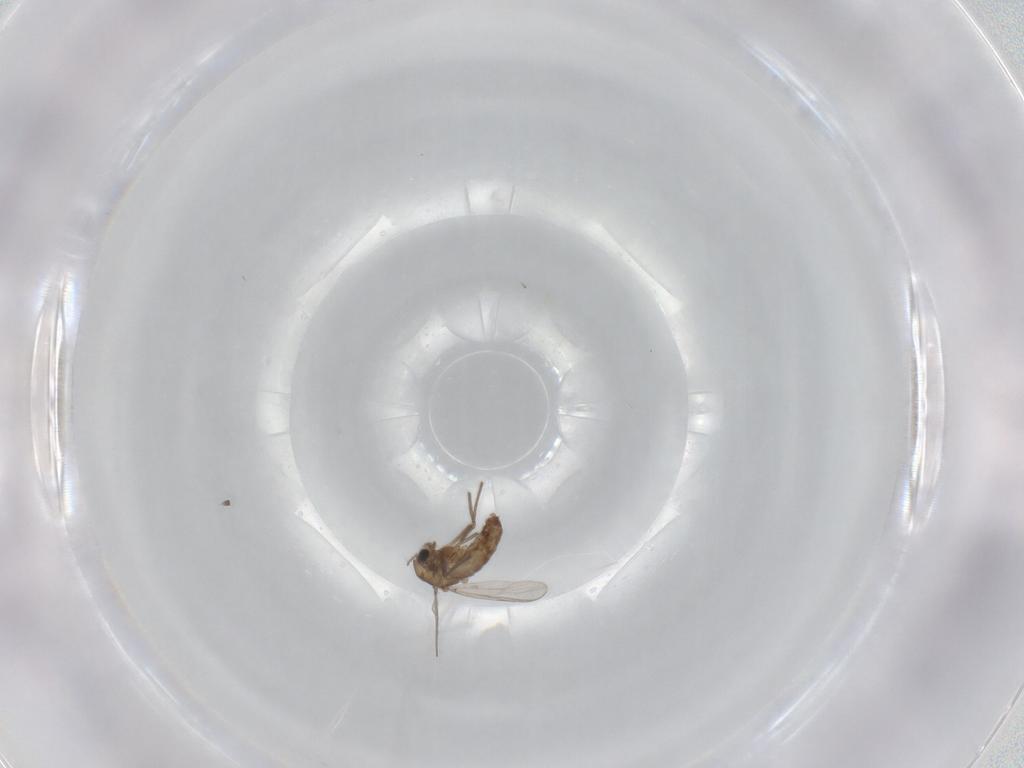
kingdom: Animalia
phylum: Arthropoda
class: Insecta
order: Diptera
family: Chironomidae
